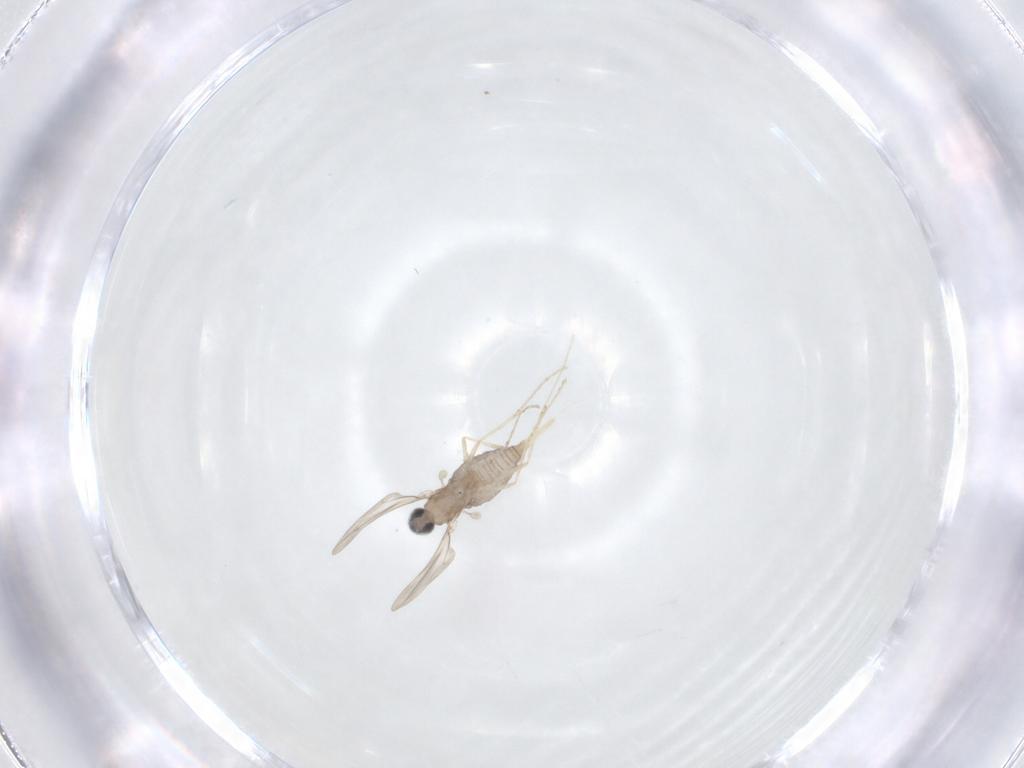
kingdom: Animalia
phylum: Arthropoda
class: Insecta
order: Diptera
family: Cecidomyiidae
